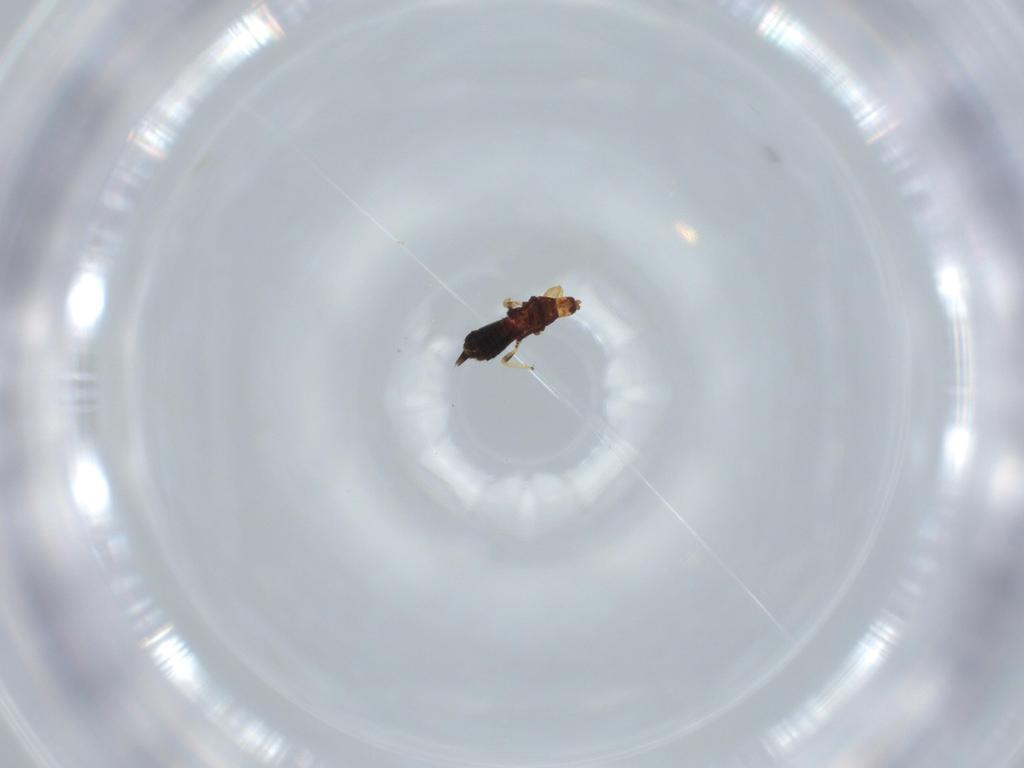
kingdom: Animalia
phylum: Arthropoda
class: Insecta
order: Thysanoptera
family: Phlaeothripidae
